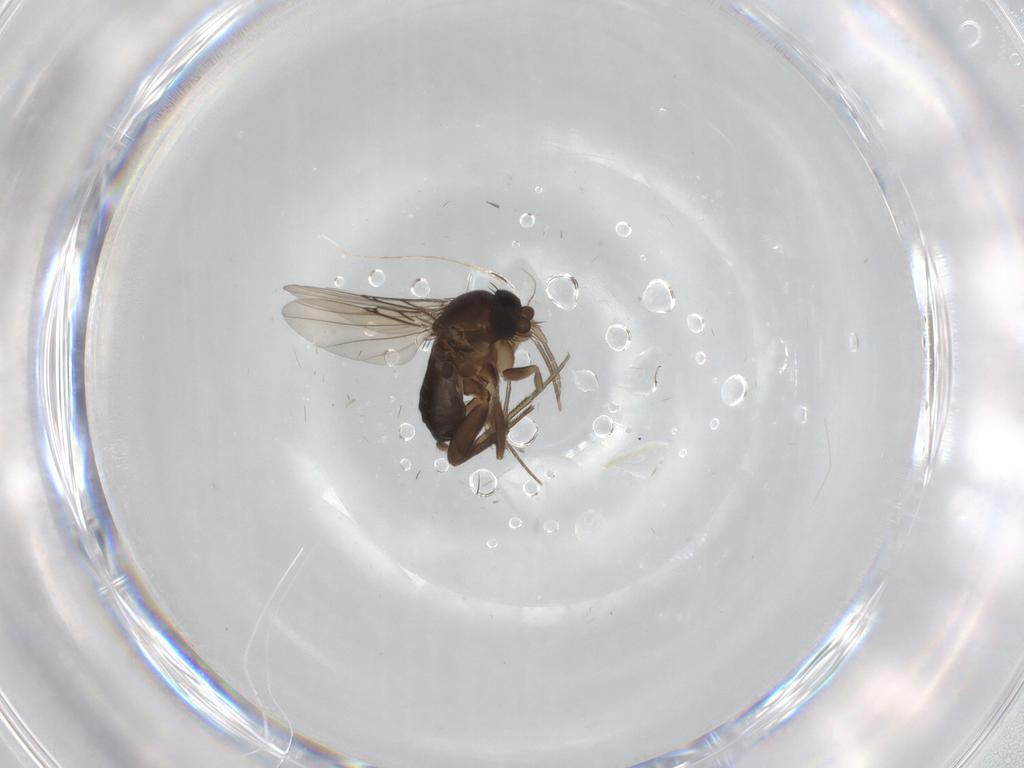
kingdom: Animalia
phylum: Arthropoda
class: Insecta
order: Diptera
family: Phoridae
